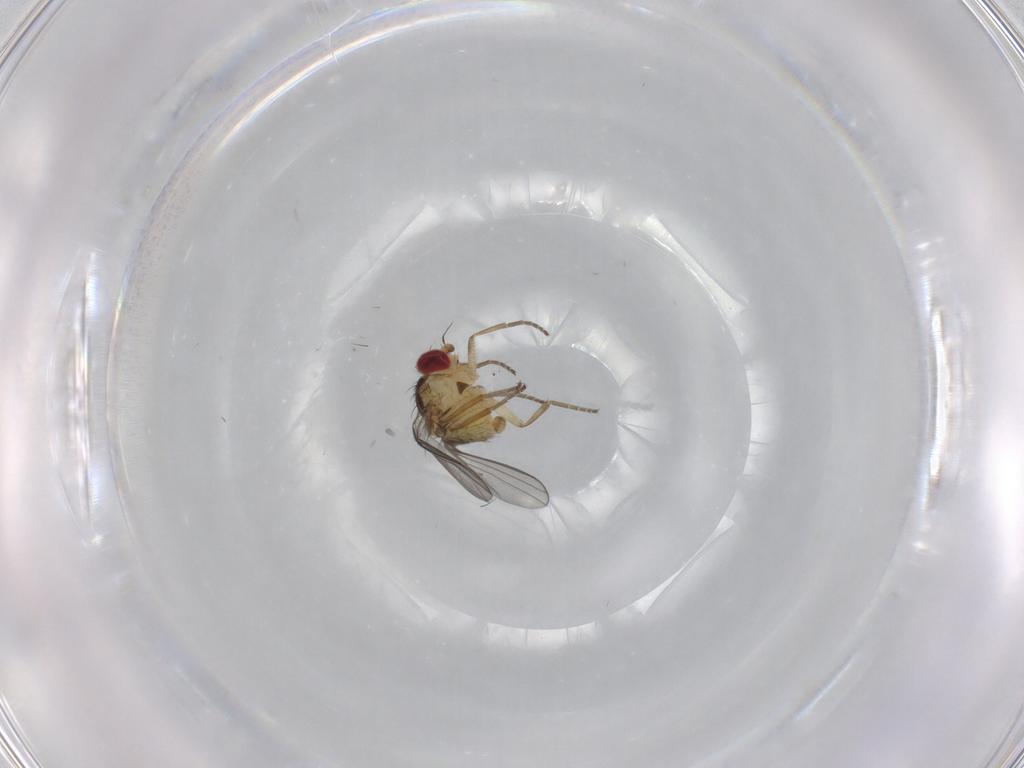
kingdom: Animalia
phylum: Arthropoda
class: Insecta
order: Diptera
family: Agromyzidae
